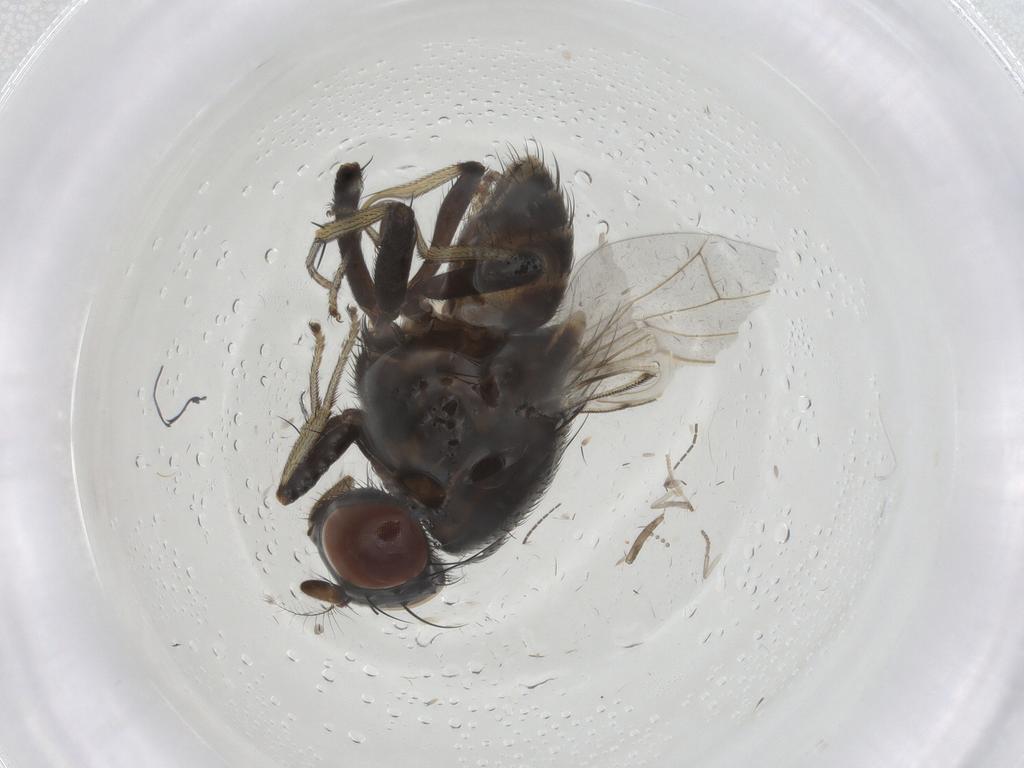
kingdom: Animalia
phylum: Arthropoda
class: Insecta
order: Diptera
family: Lauxaniidae
